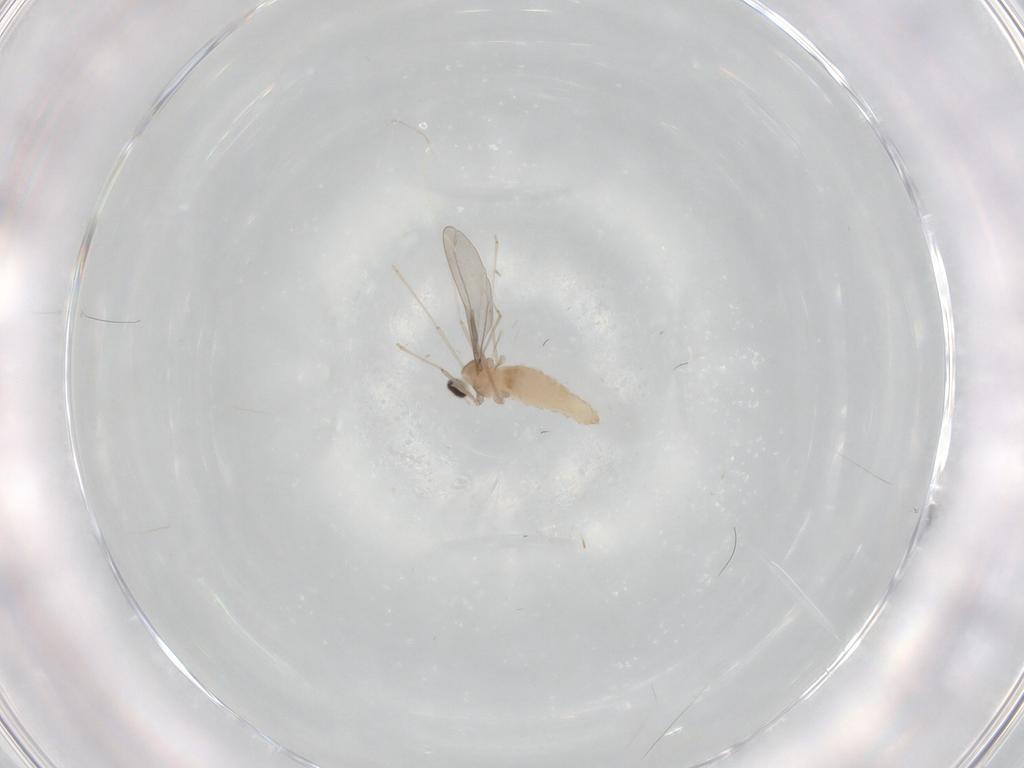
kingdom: Animalia
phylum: Arthropoda
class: Insecta
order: Diptera
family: Cecidomyiidae
